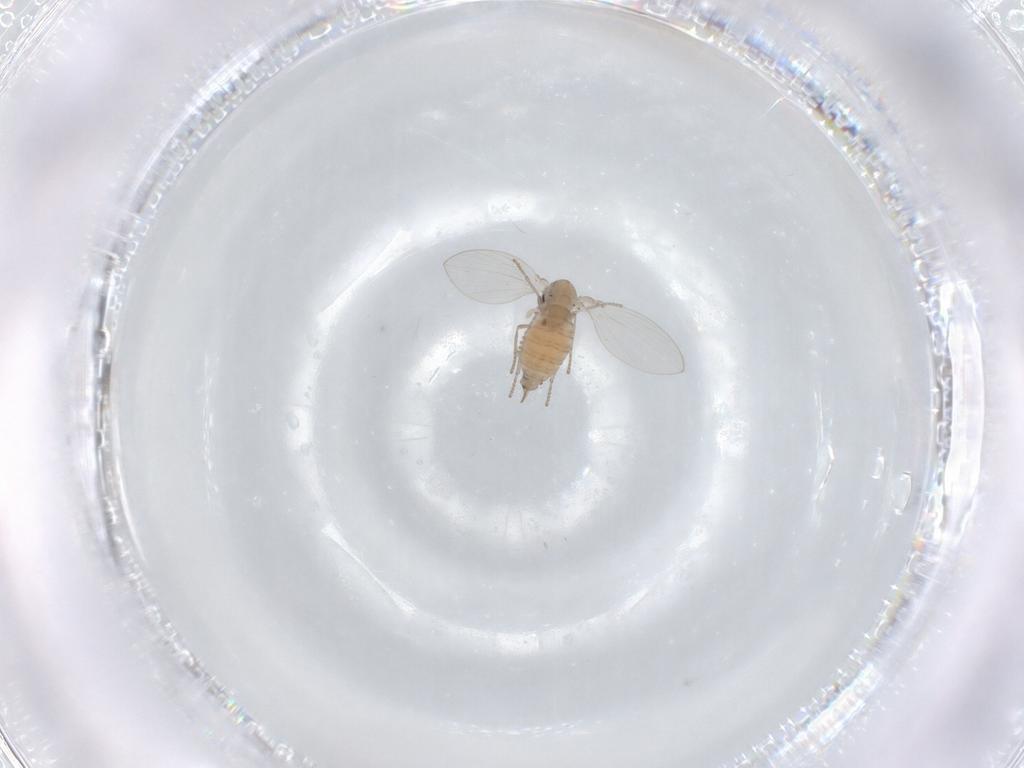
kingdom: Animalia
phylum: Arthropoda
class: Insecta
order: Diptera
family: Psychodidae
